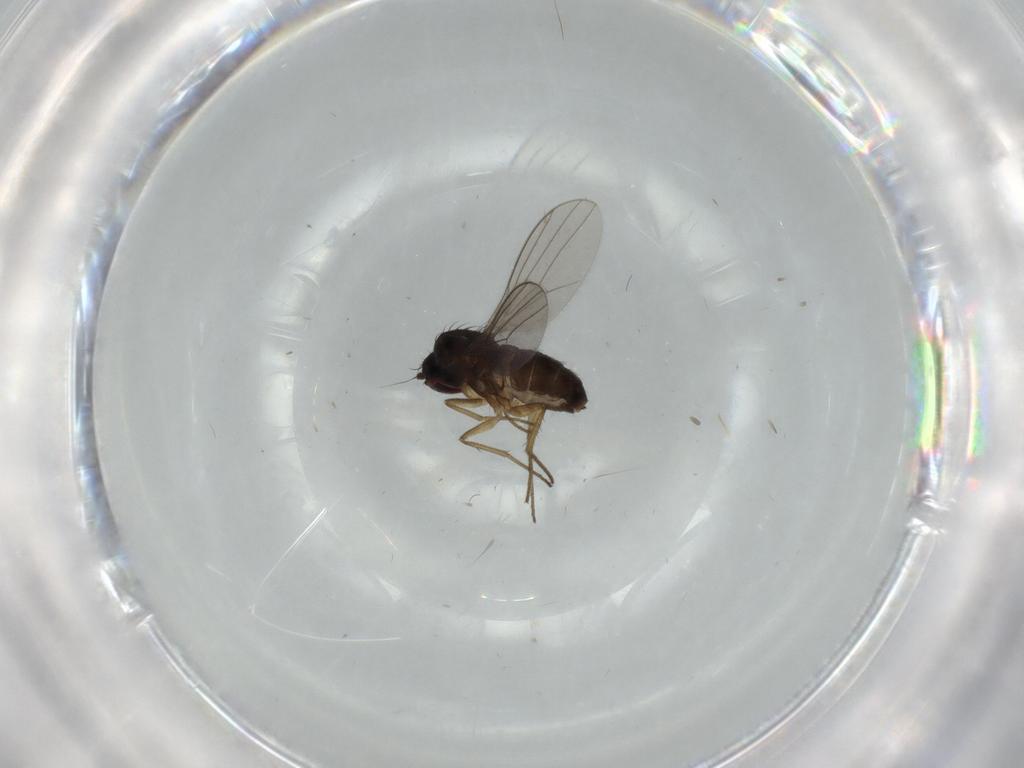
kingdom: Animalia
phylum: Arthropoda
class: Insecta
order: Diptera
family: Dolichopodidae
